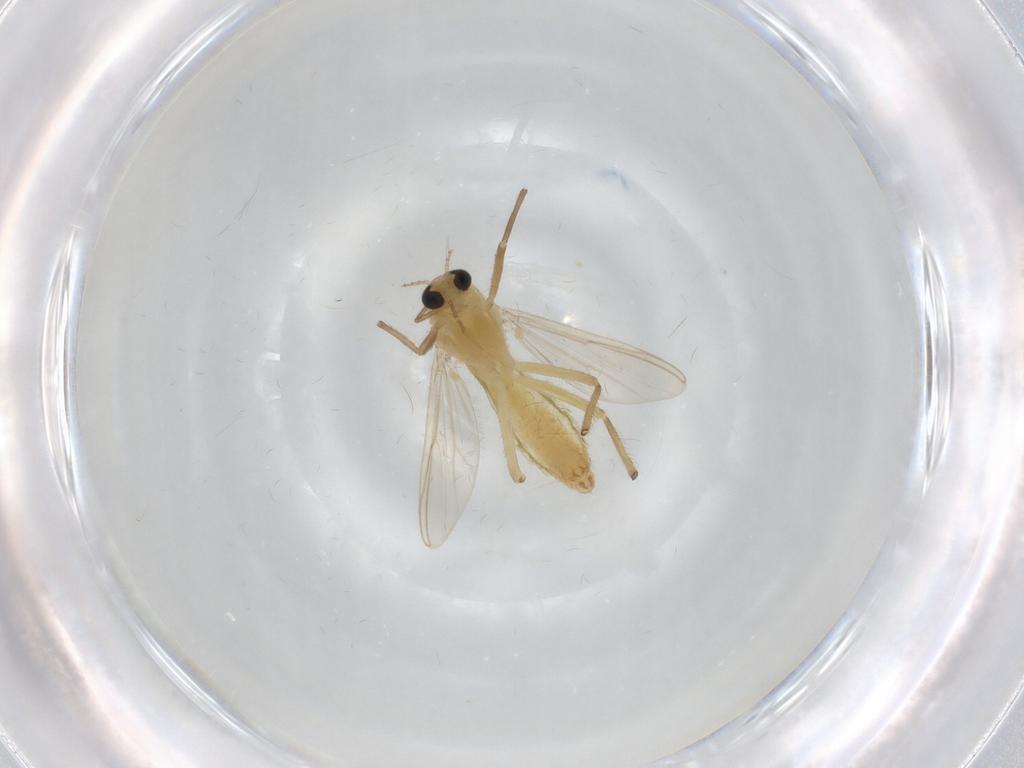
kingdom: Animalia
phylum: Arthropoda
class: Insecta
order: Diptera
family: Chironomidae
